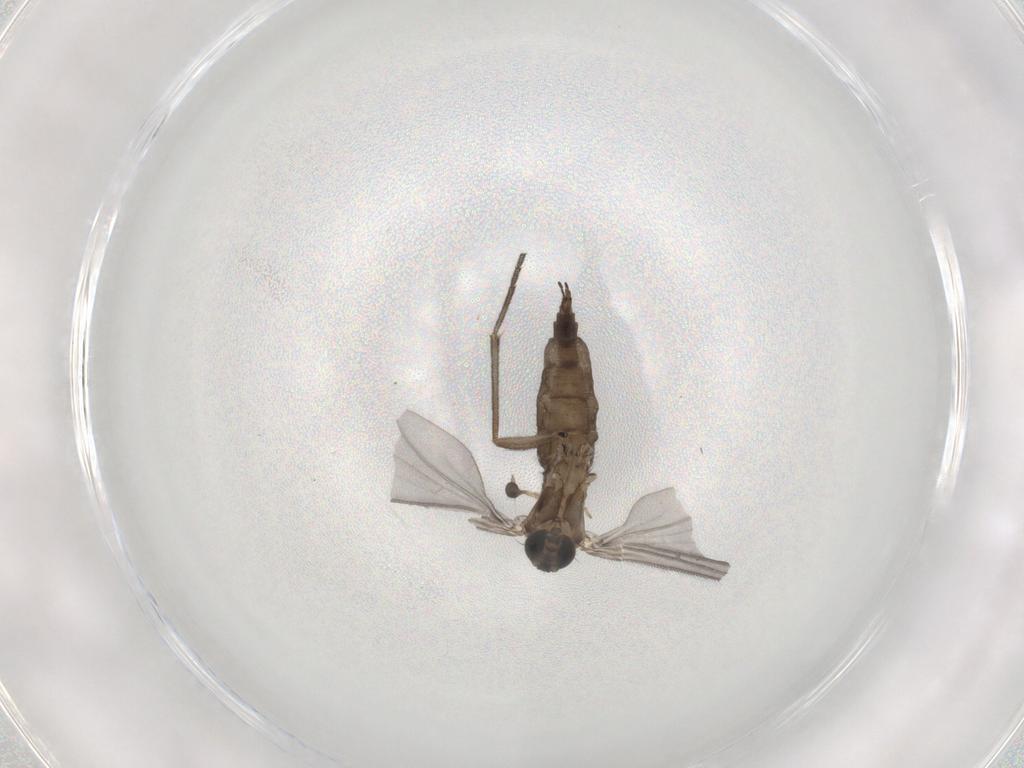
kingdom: Animalia
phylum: Arthropoda
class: Insecta
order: Diptera
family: Sciaridae
